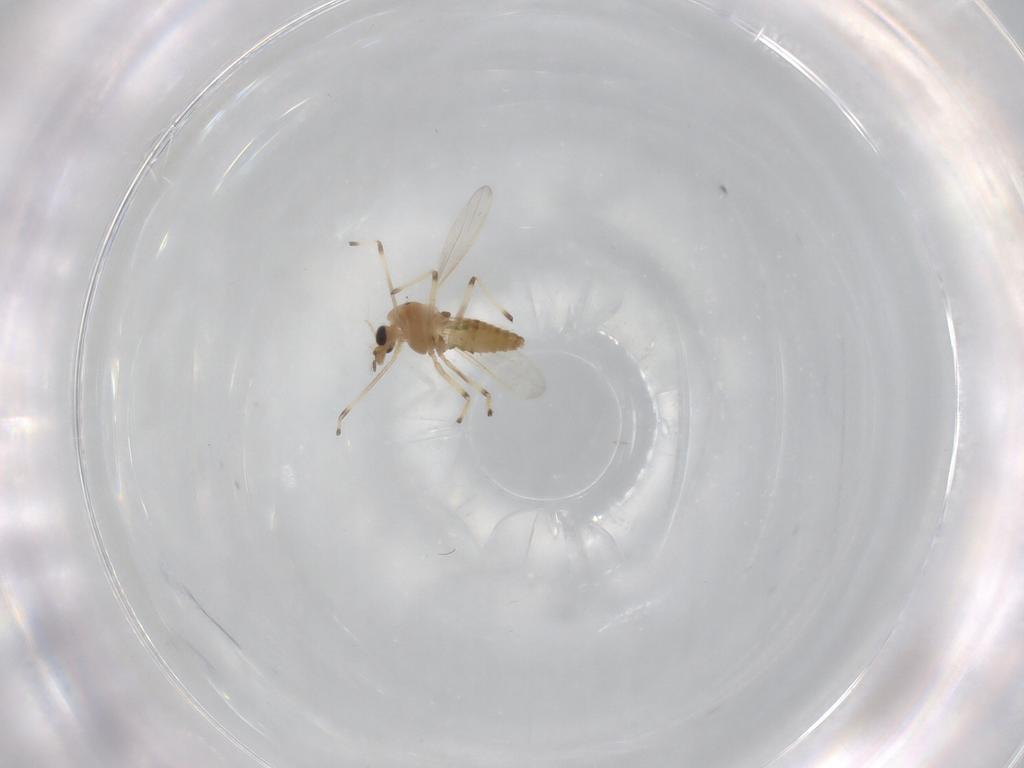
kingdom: Animalia
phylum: Arthropoda
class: Insecta
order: Diptera
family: Chironomidae
